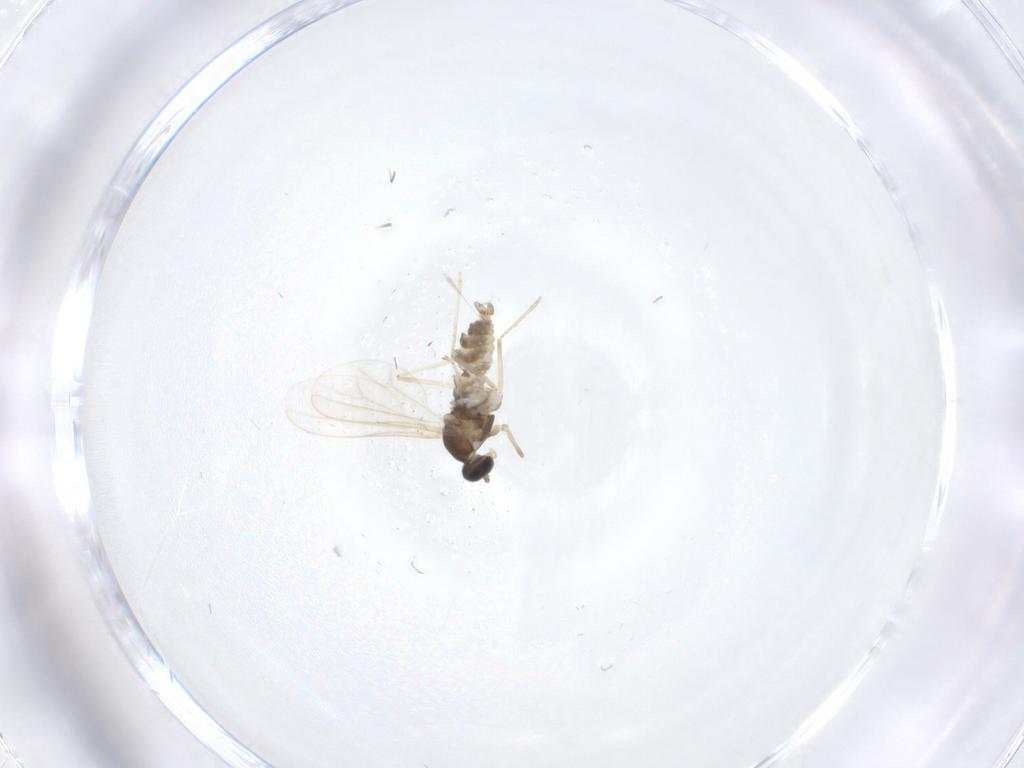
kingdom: Animalia
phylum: Arthropoda
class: Insecta
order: Diptera
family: Cecidomyiidae
